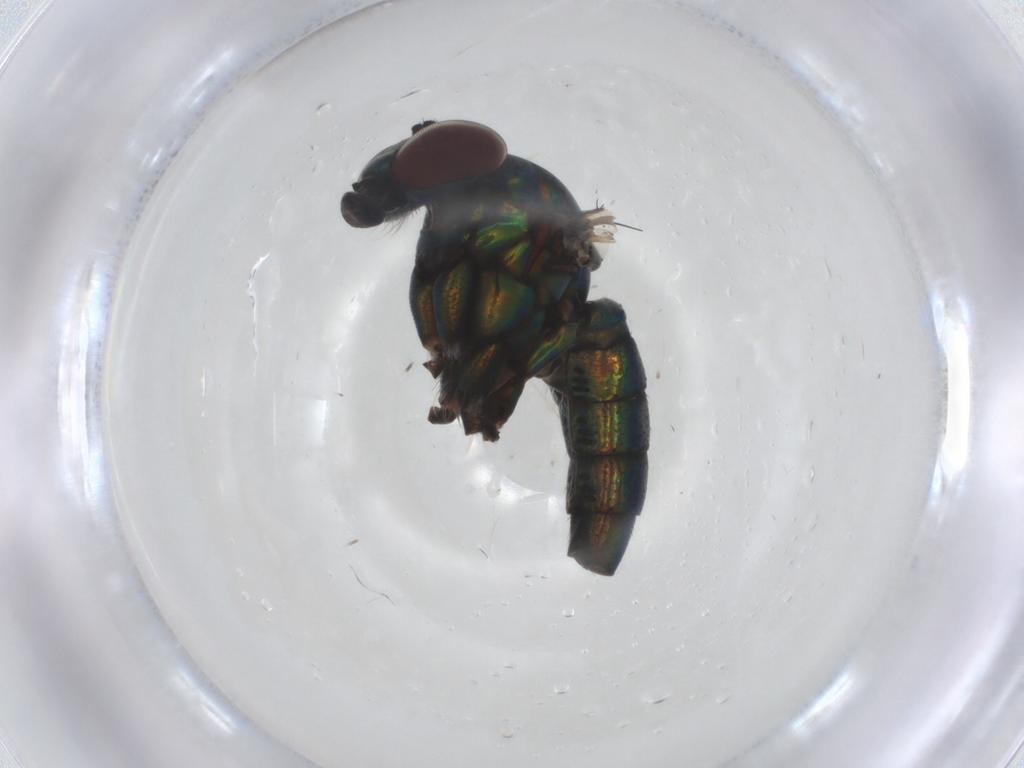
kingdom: Animalia
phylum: Arthropoda
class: Insecta
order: Diptera
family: Dolichopodidae
